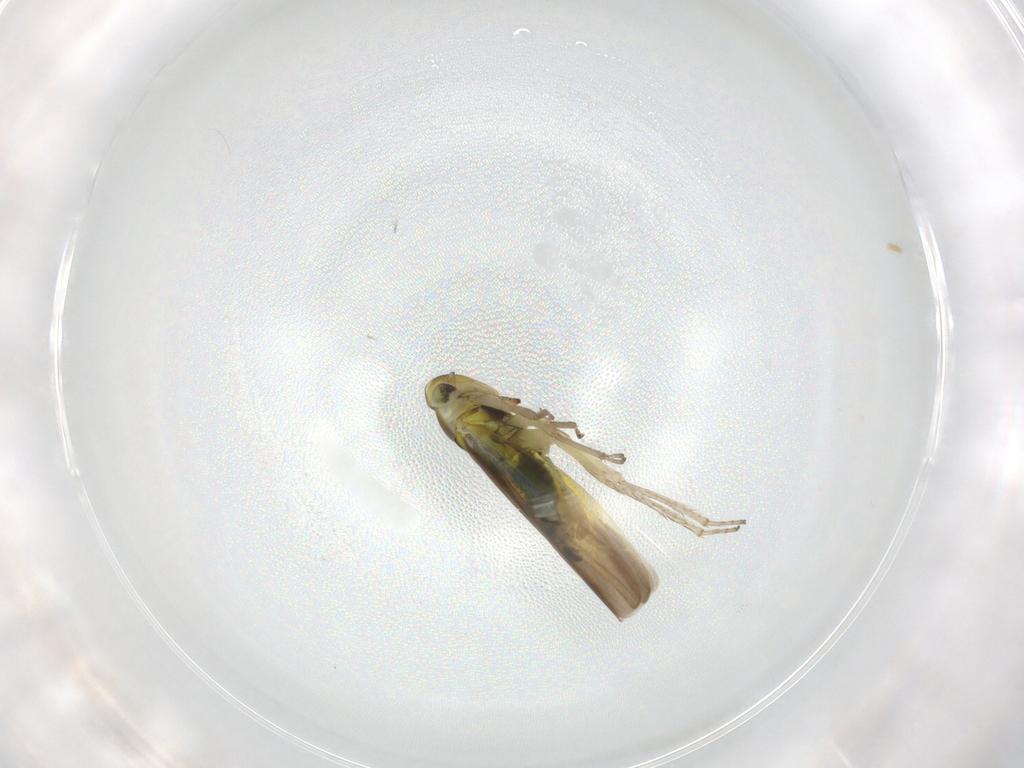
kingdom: Animalia
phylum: Arthropoda
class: Insecta
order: Hemiptera
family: Cicadellidae
